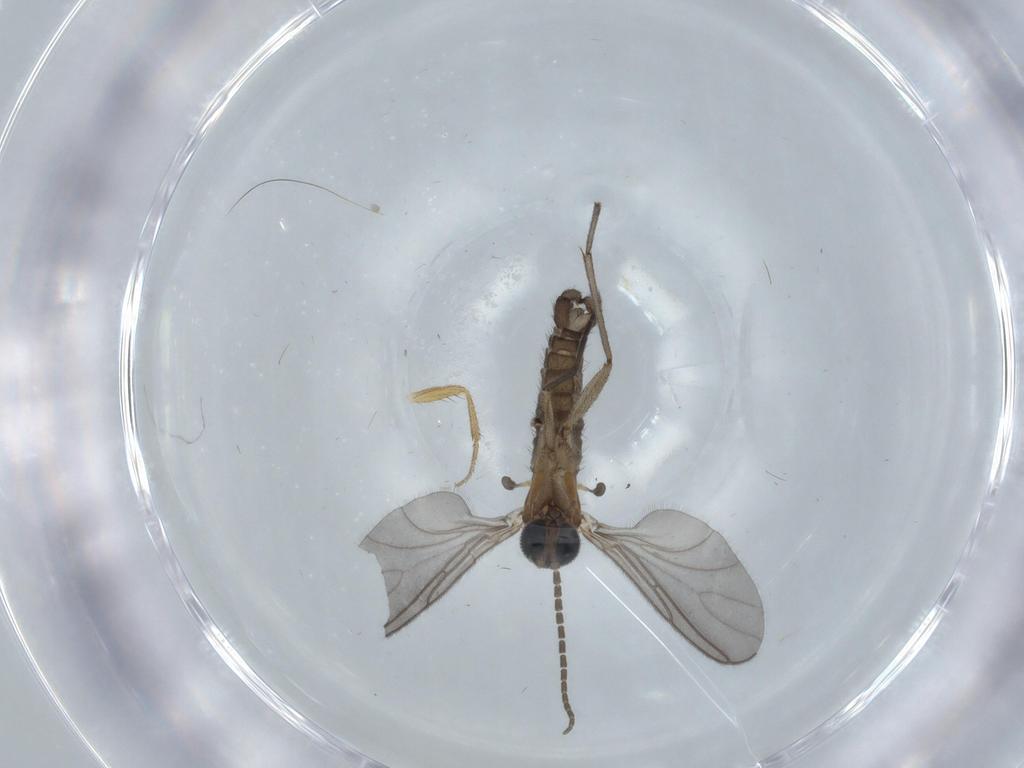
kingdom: Animalia
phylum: Arthropoda
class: Insecta
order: Diptera
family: Sciaridae
